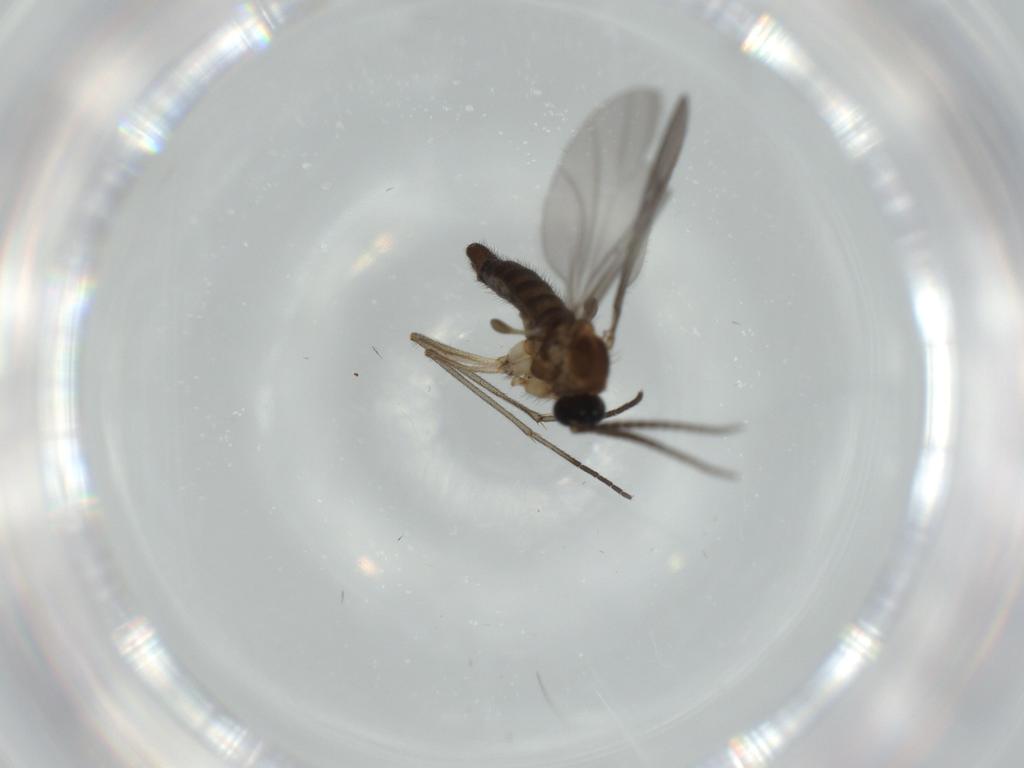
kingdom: Animalia
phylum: Arthropoda
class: Insecta
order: Diptera
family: Sciaridae
